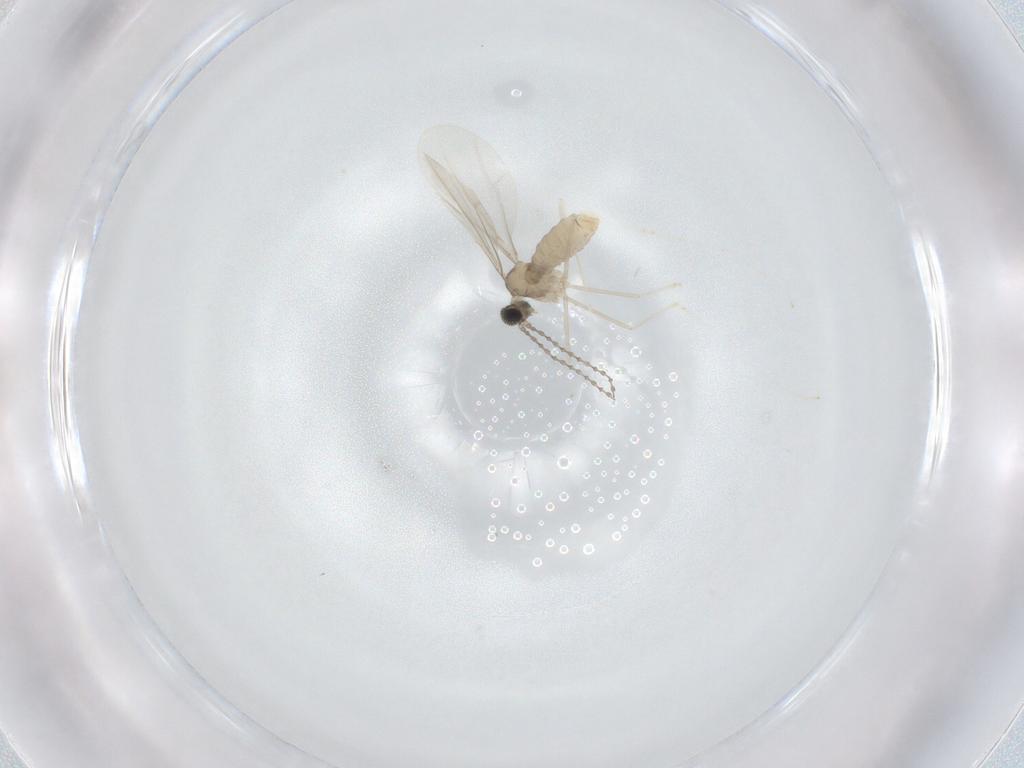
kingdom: Animalia
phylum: Arthropoda
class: Insecta
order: Diptera
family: Cecidomyiidae
